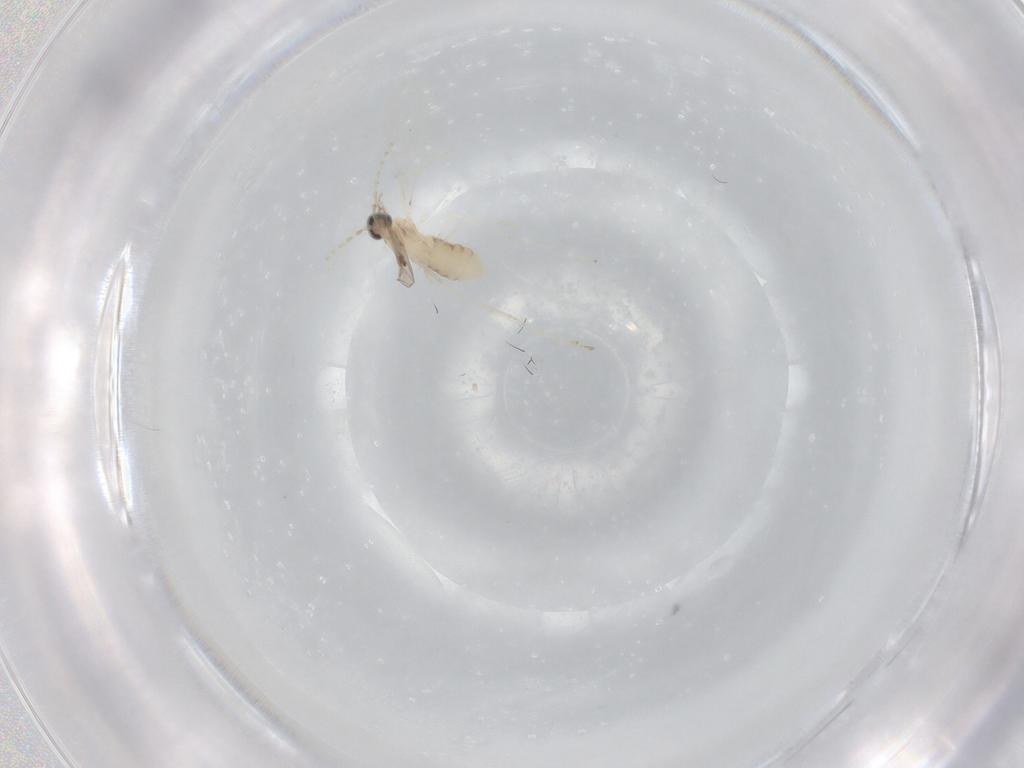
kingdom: Animalia
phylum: Arthropoda
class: Insecta
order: Diptera
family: Cecidomyiidae
